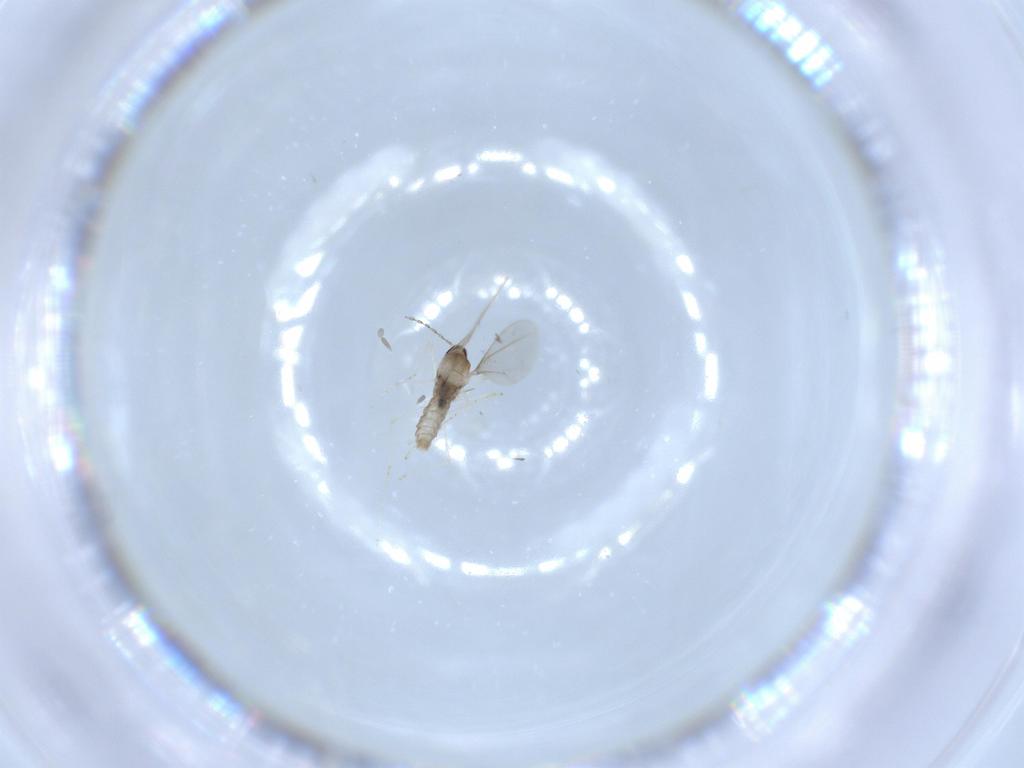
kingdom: Animalia
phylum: Arthropoda
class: Insecta
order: Diptera
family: Cecidomyiidae
